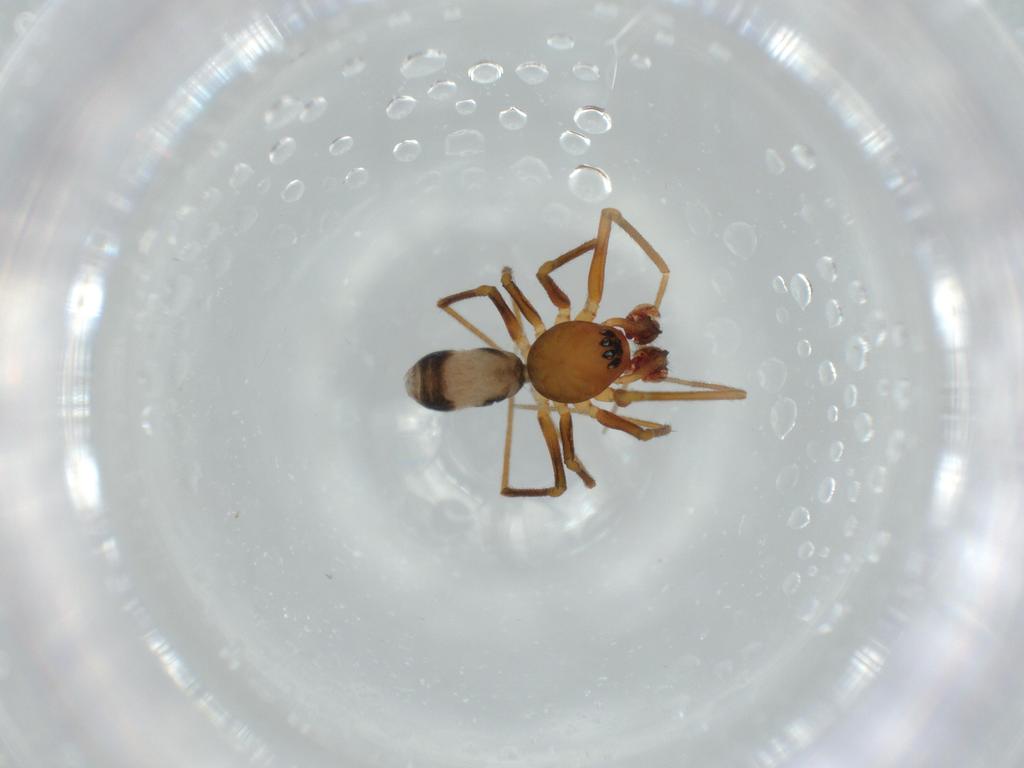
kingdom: Animalia
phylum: Arthropoda
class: Arachnida
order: Araneae
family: Linyphiidae
